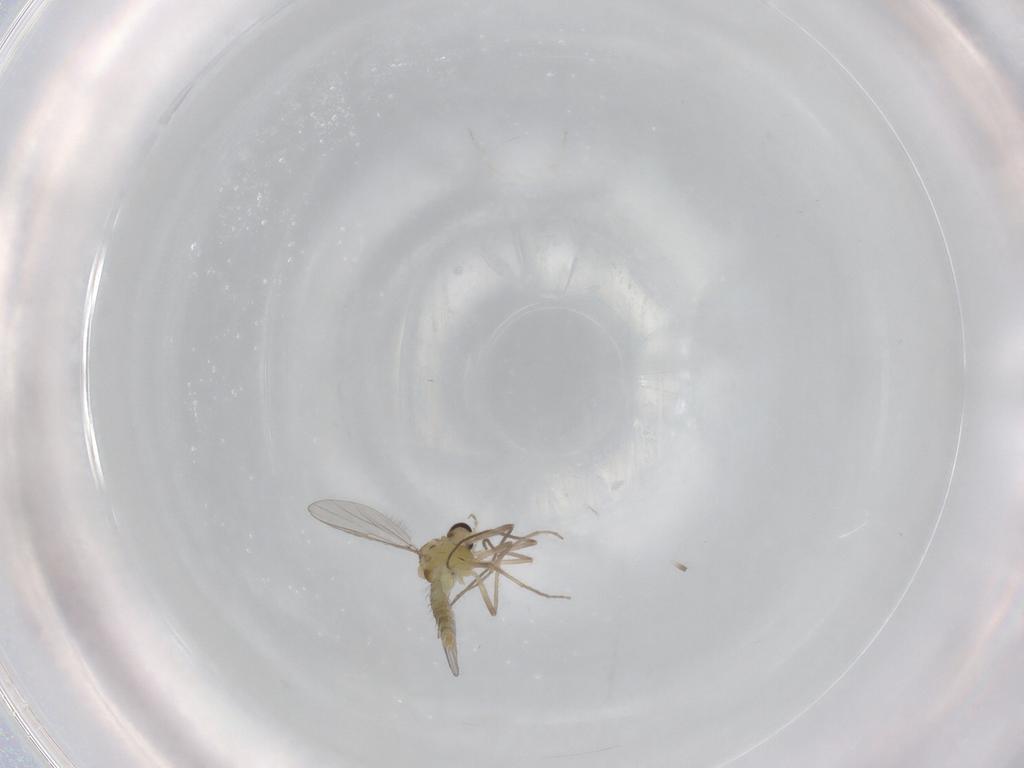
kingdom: Animalia
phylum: Arthropoda
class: Insecta
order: Diptera
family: Chironomidae
